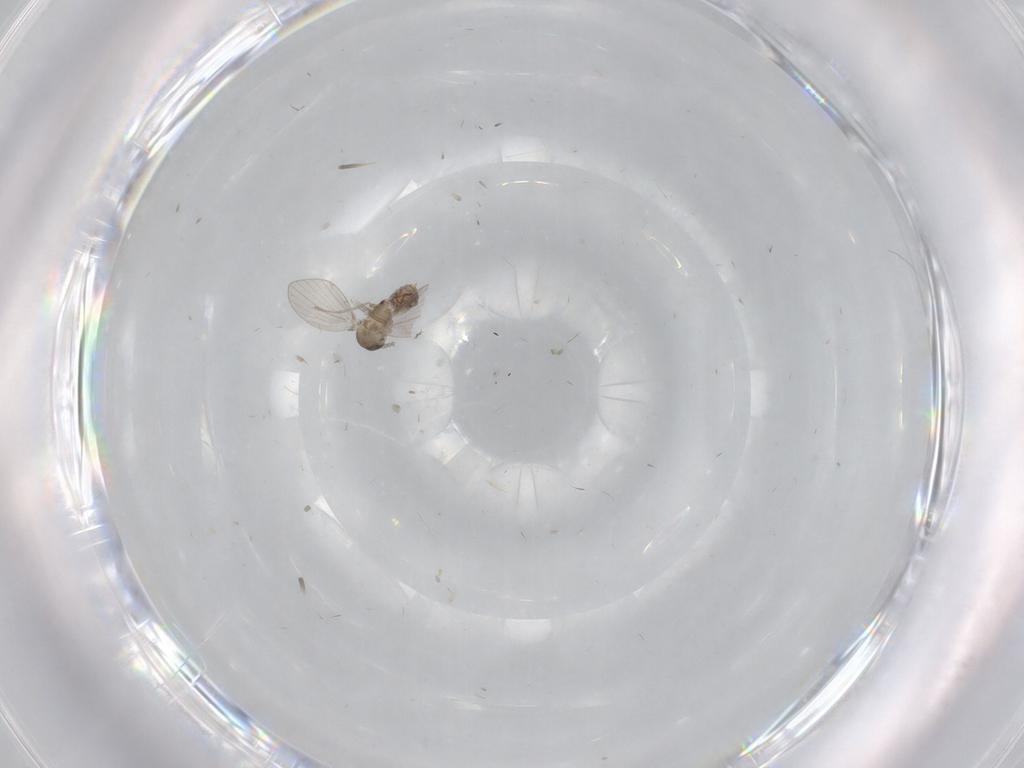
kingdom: Animalia
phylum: Arthropoda
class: Insecta
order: Diptera
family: Psychodidae
